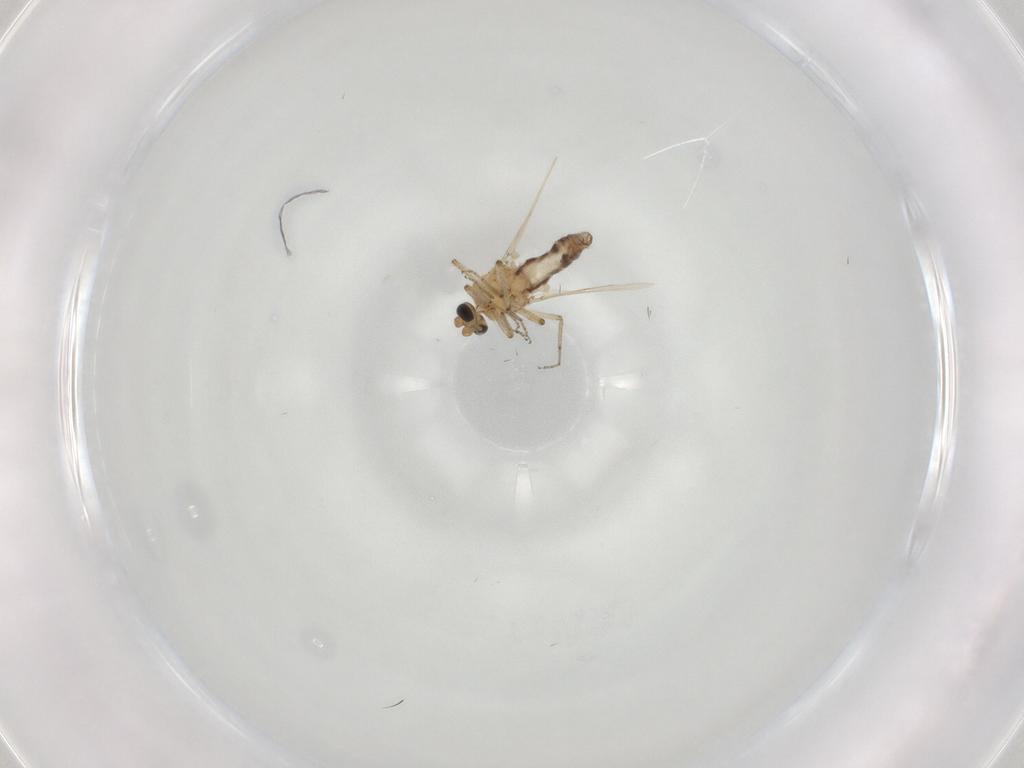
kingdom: Animalia
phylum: Arthropoda
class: Insecta
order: Diptera
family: Ceratopogonidae
